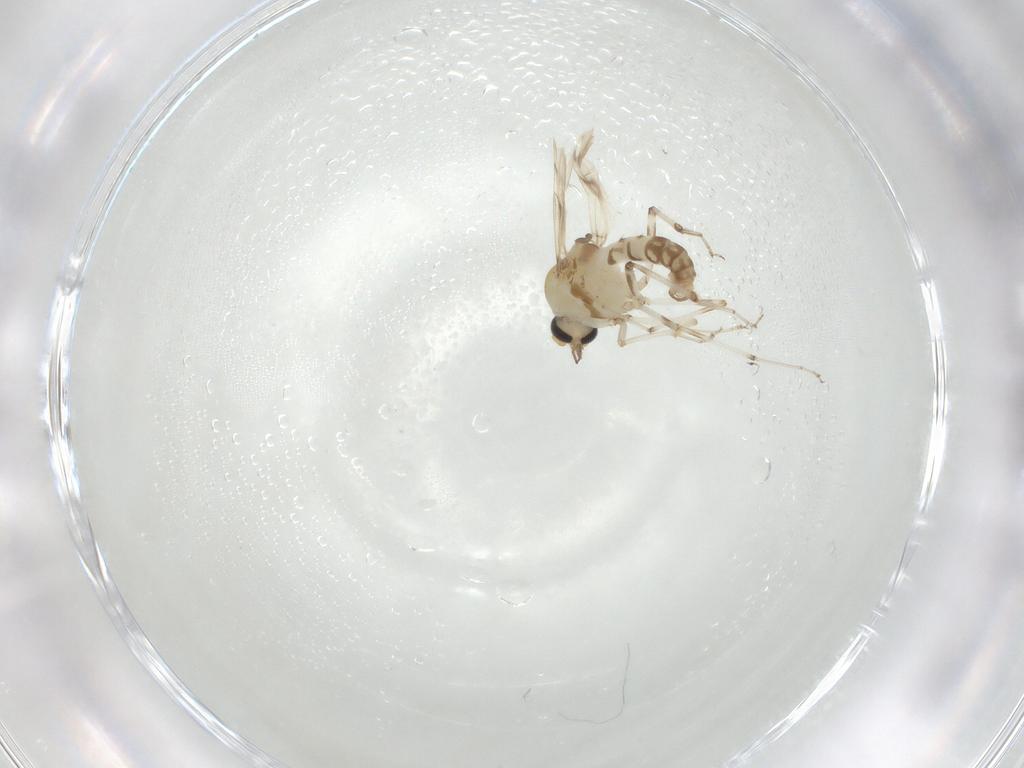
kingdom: Animalia
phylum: Arthropoda
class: Insecta
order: Diptera
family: Ceratopogonidae
